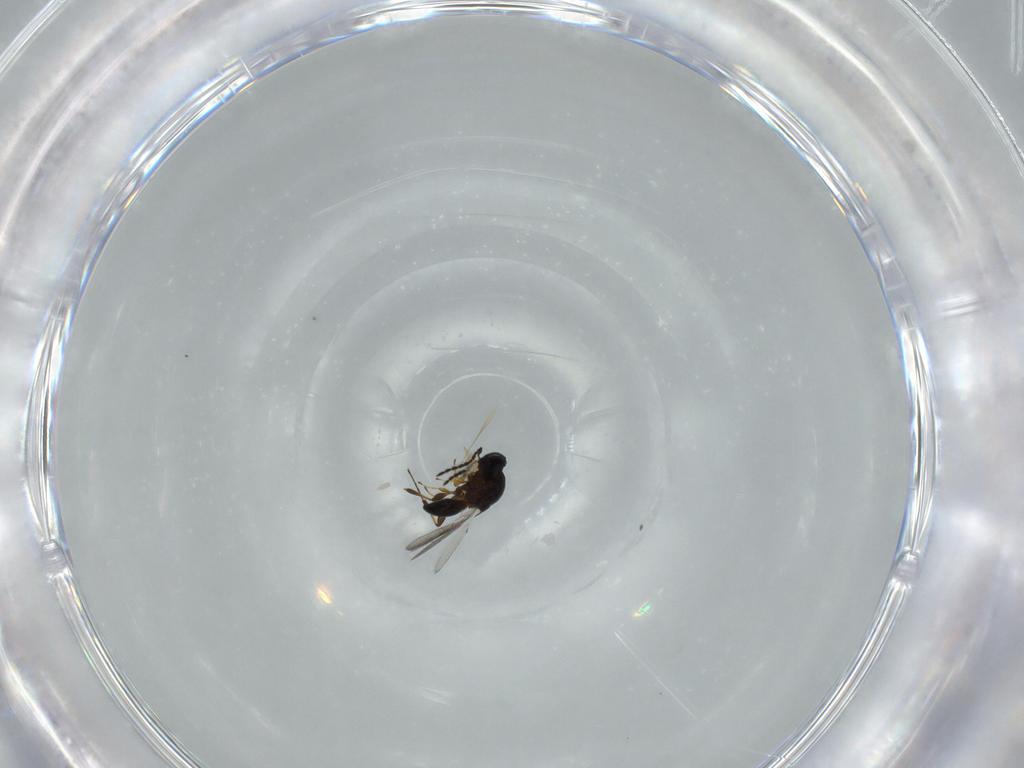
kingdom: Animalia
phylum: Arthropoda
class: Insecta
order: Hymenoptera
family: Platygastridae
